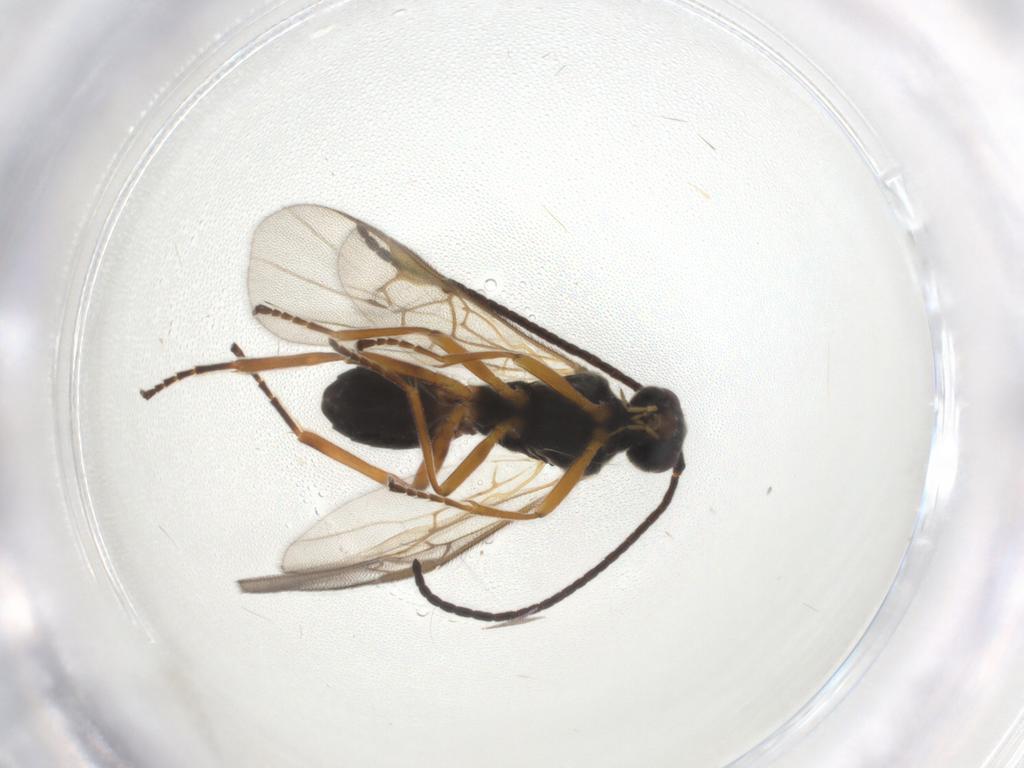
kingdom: Animalia
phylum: Arthropoda
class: Insecta
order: Hymenoptera
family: Braconidae
